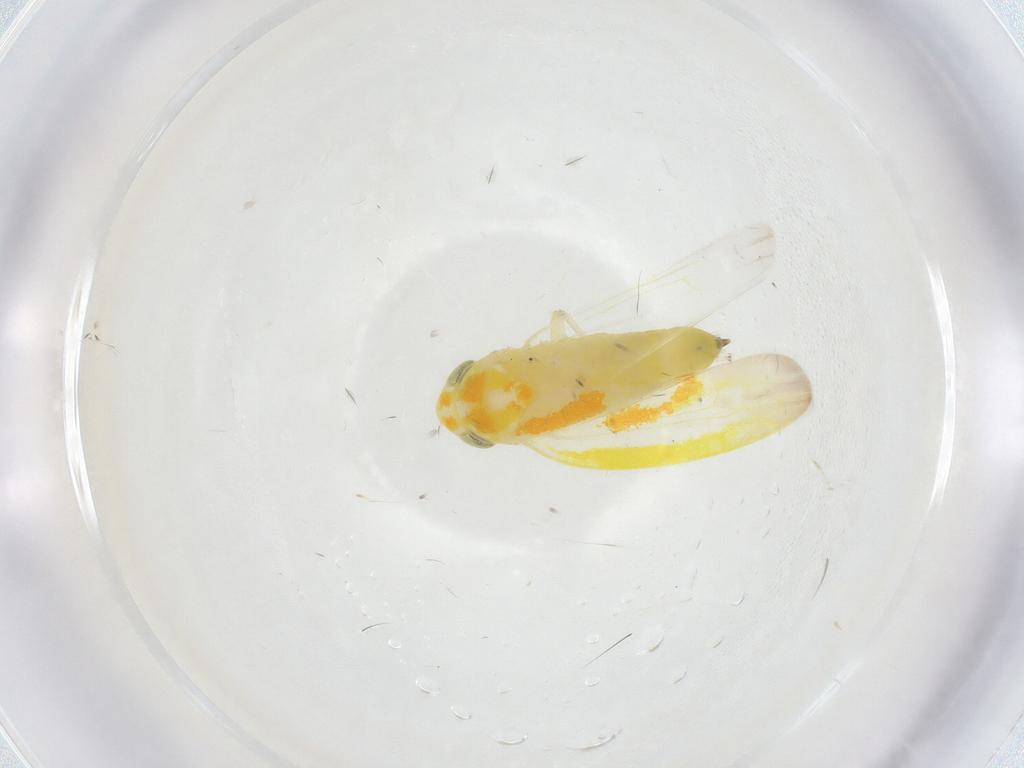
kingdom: Animalia
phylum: Arthropoda
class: Insecta
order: Hemiptera
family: Cicadellidae
